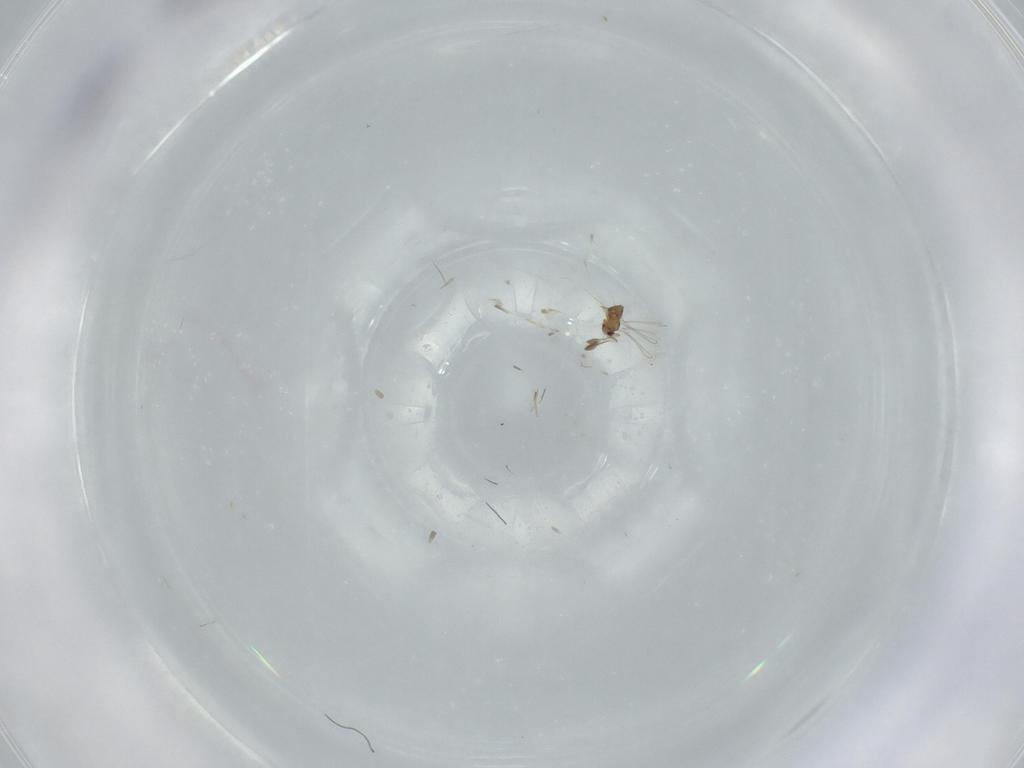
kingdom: Animalia
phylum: Arthropoda
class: Insecta
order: Hymenoptera
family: Mymaridae
